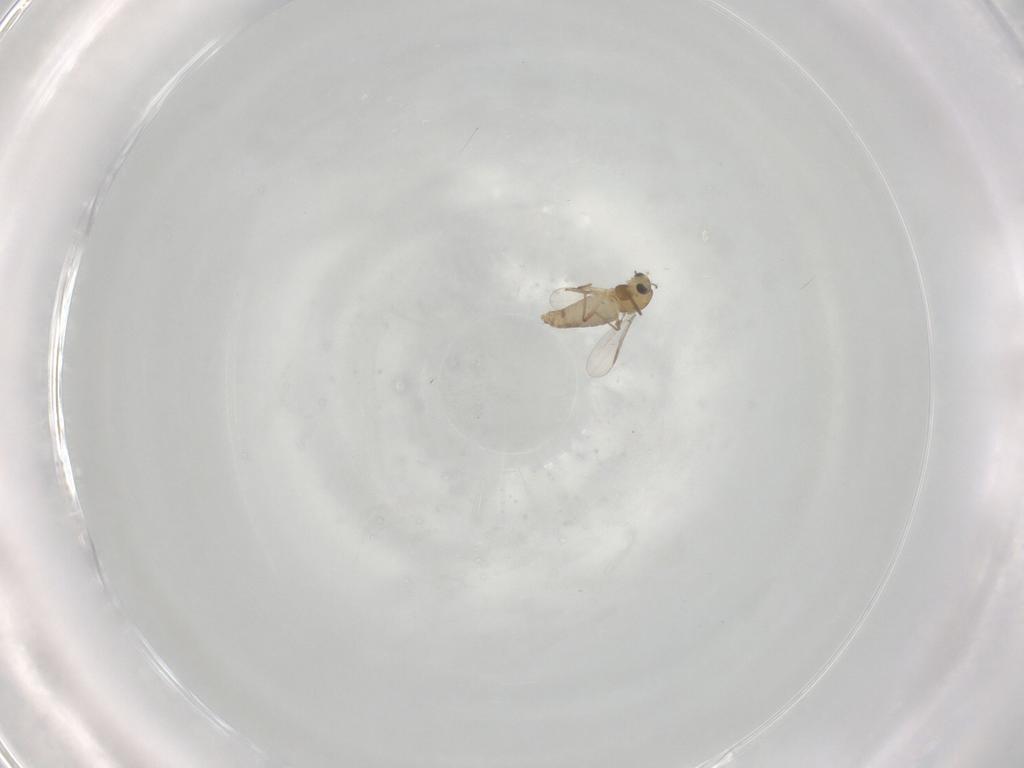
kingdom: Animalia
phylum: Arthropoda
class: Insecta
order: Diptera
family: Chironomidae
